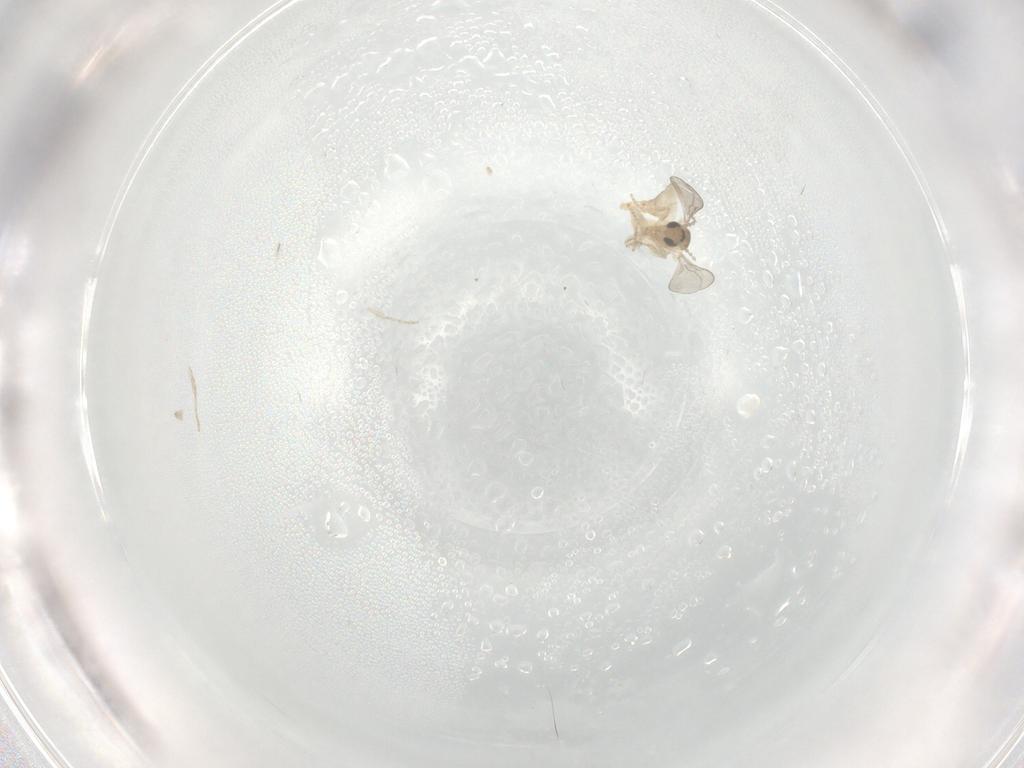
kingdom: Animalia
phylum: Arthropoda
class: Insecta
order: Diptera
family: Cecidomyiidae
